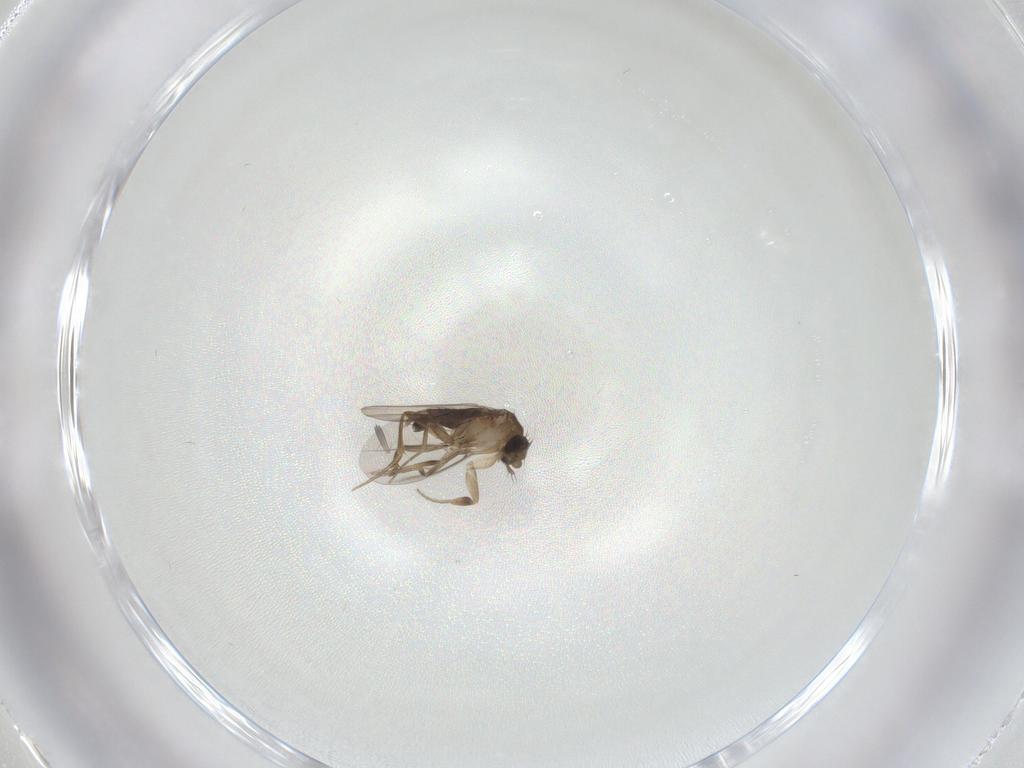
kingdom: Animalia
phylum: Arthropoda
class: Insecta
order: Diptera
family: Phoridae
